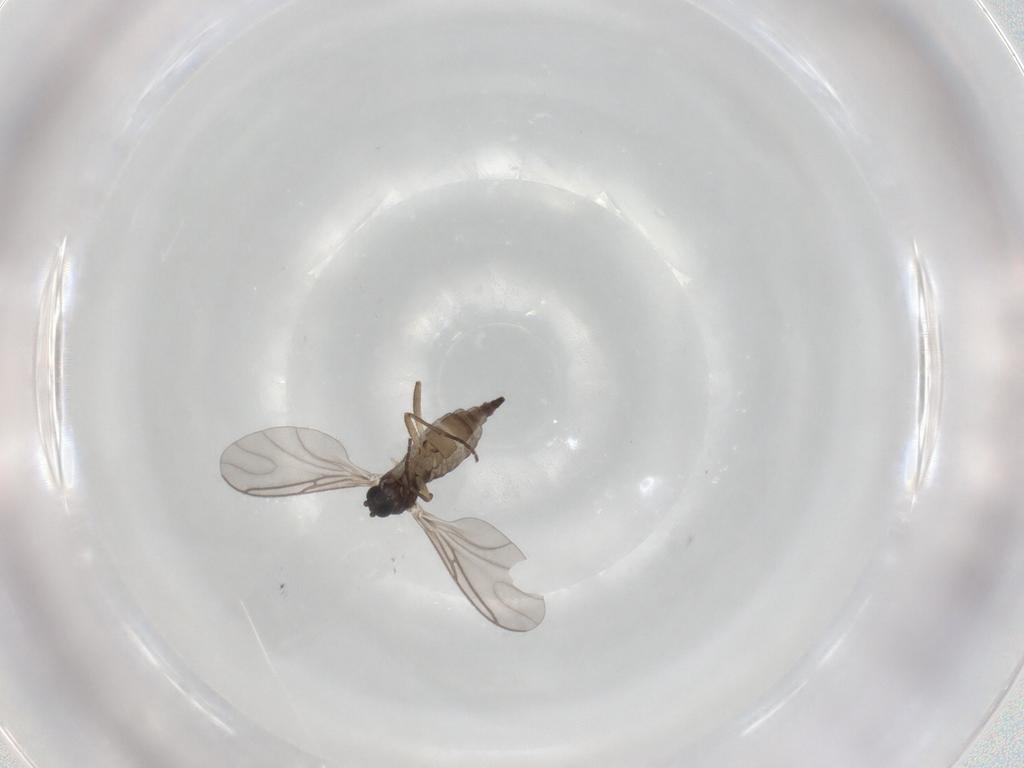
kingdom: Animalia
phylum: Arthropoda
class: Insecta
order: Diptera
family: Sciaridae
